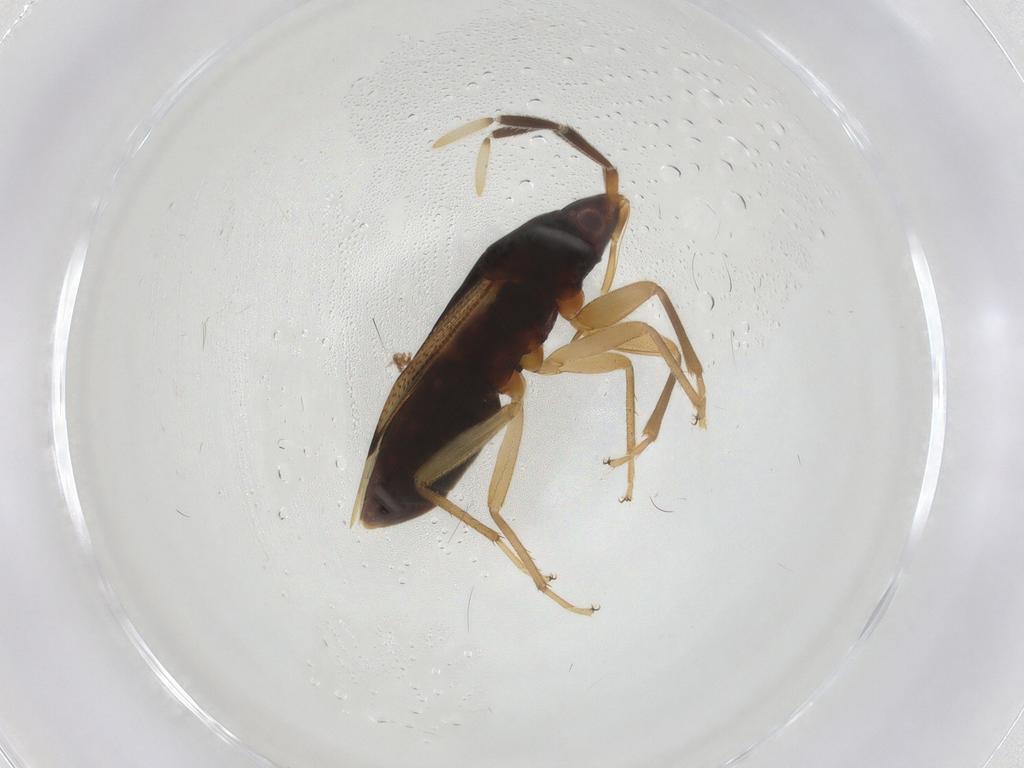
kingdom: Animalia
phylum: Arthropoda
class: Insecta
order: Hemiptera
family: Rhyparochromidae
